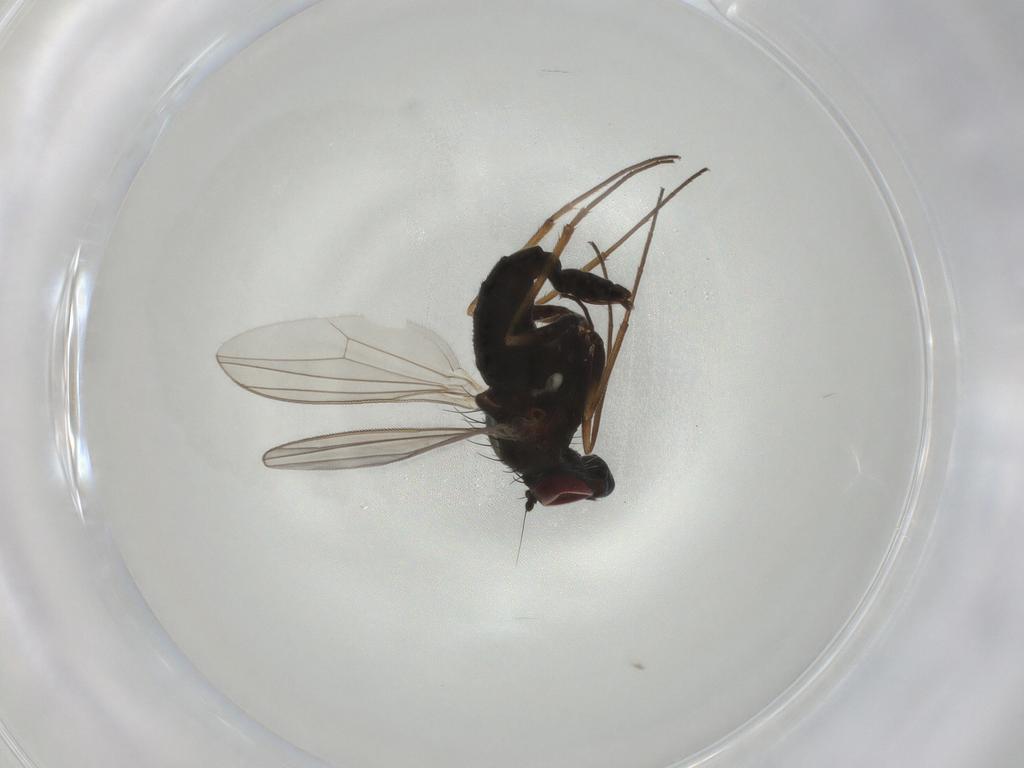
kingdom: Animalia
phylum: Arthropoda
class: Insecta
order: Diptera
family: Dolichopodidae
